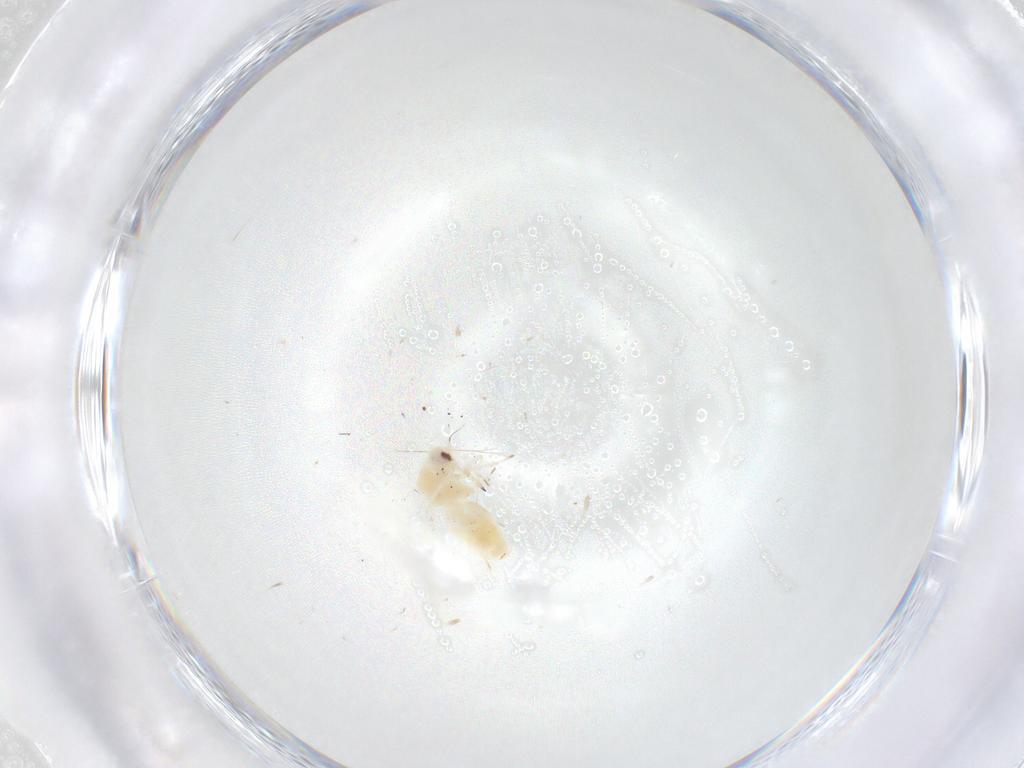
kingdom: Animalia
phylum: Arthropoda
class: Insecta
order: Hemiptera
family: Aleyrodidae
